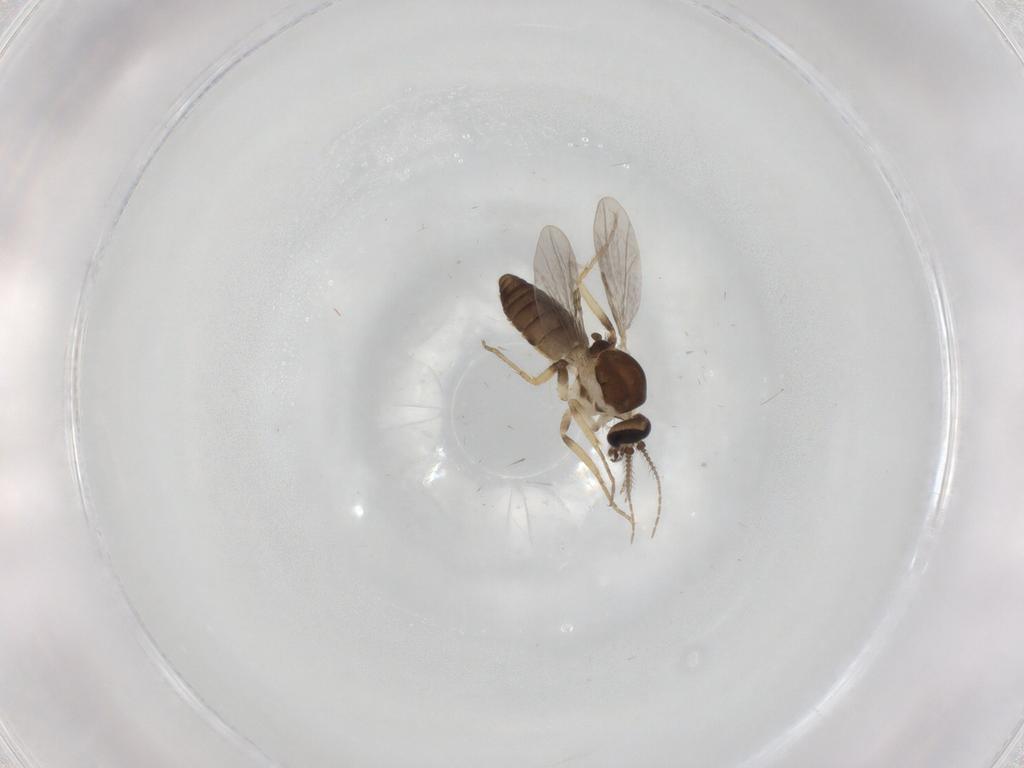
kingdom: Animalia
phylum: Arthropoda
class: Insecta
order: Diptera
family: Ceratopogonidae
